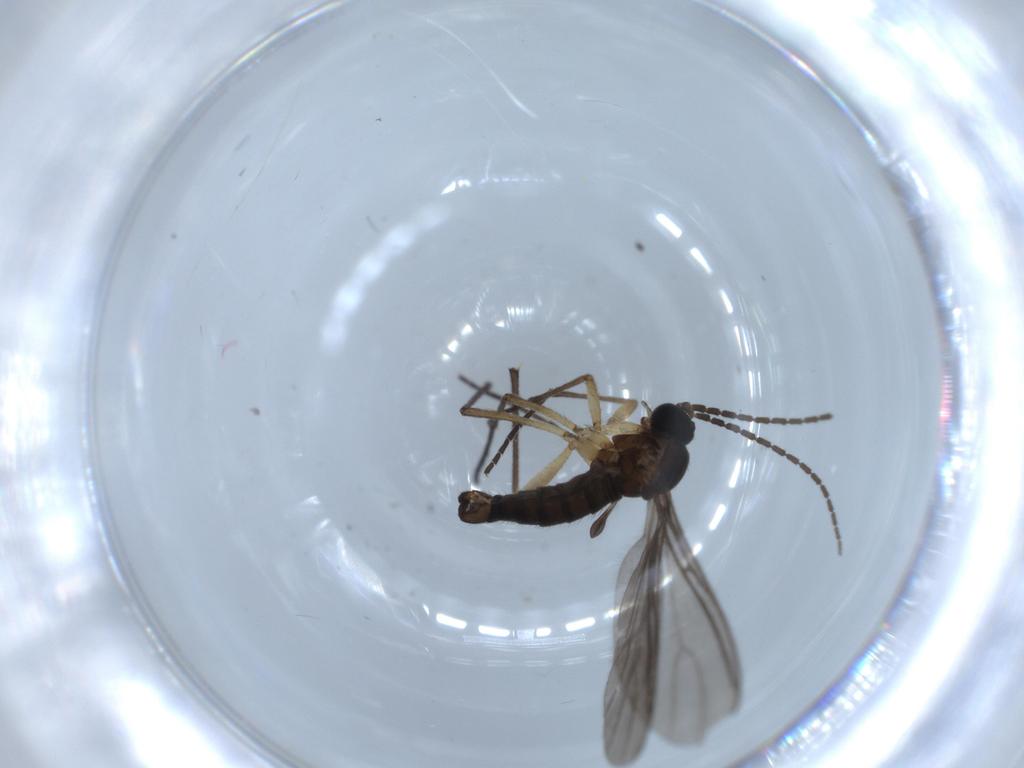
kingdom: Animalia
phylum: Arthropoda
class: Insecta
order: Diptera
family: Sciaridae
